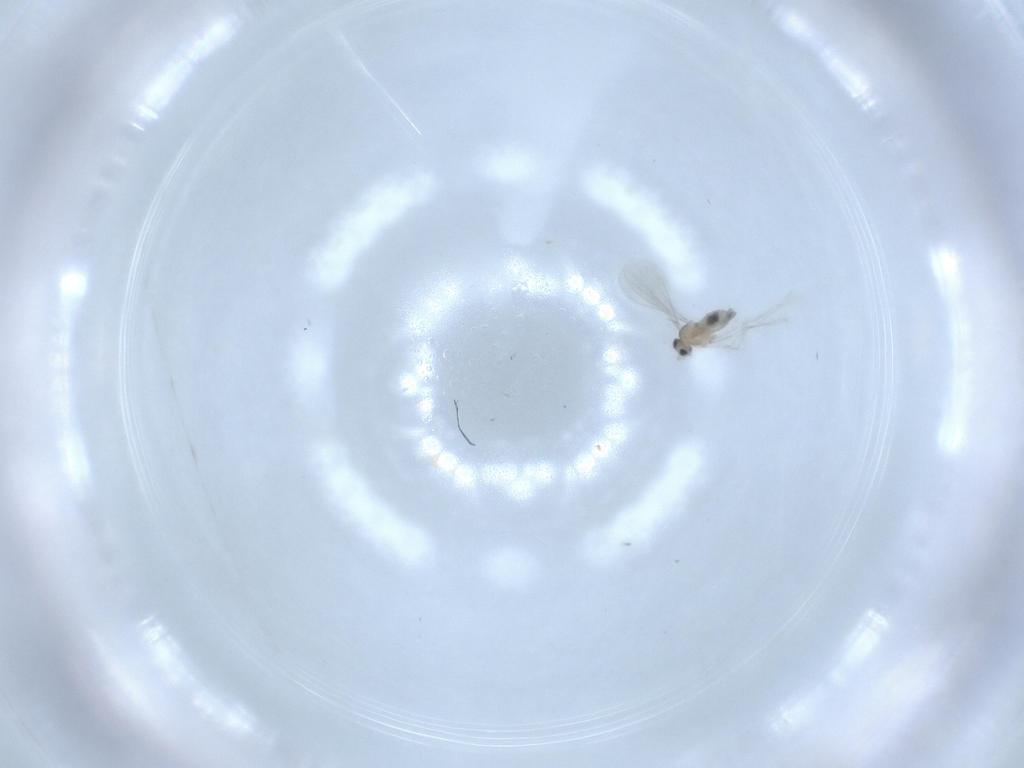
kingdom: Animalia
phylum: Arthropoda
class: Insecta
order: Diptera
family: Cecidomyiidae
